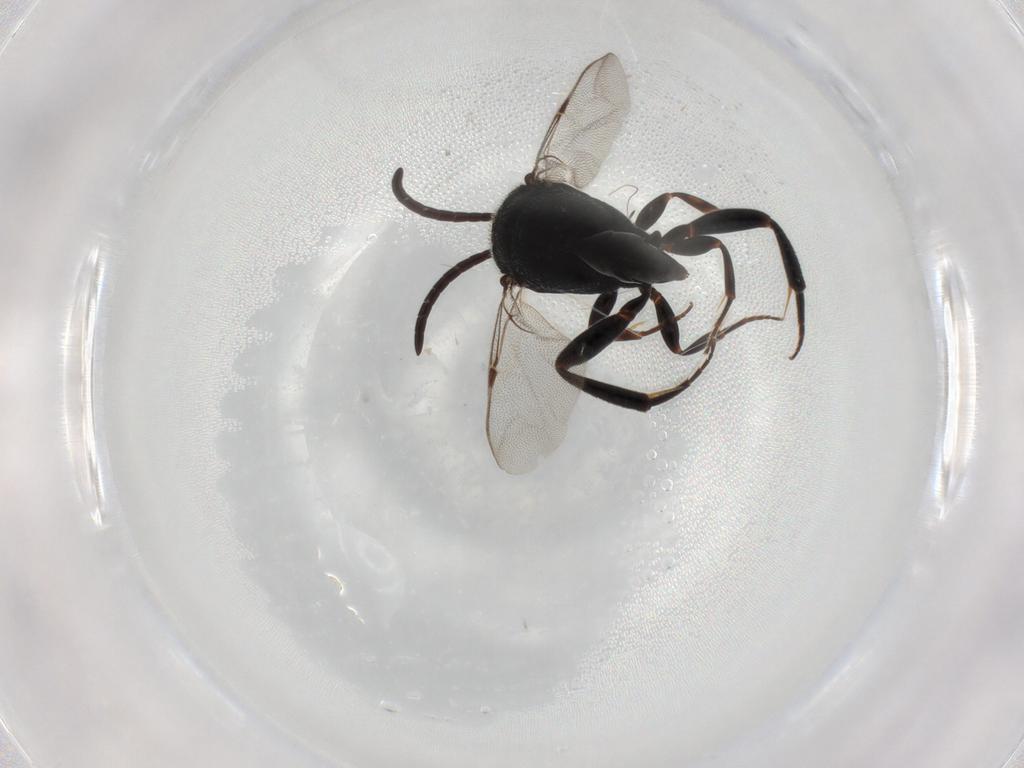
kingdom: Animalia
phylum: Arthropoda
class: Insecta
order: Hymenoptera
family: Evaniidae
